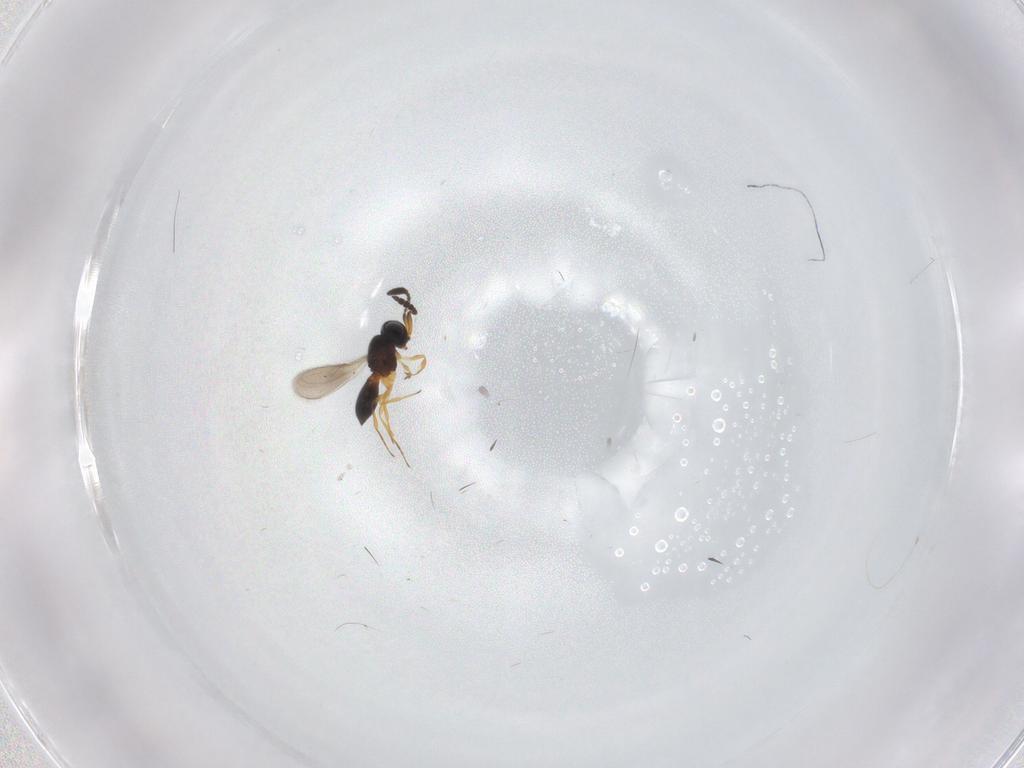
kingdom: Animalia
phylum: Arthropoda
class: Insecta
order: Hymenoptera
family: Scelionidae
